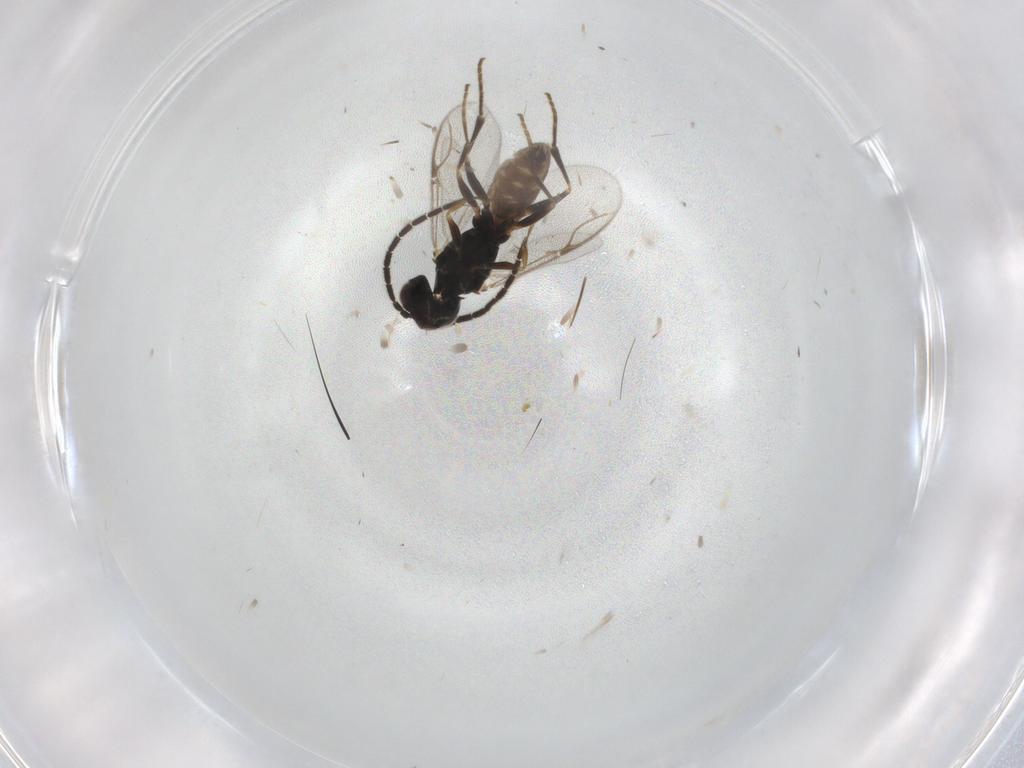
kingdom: Animalia
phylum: Arthropoda
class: Insecta
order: Hymenoptera
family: Dryinidae
